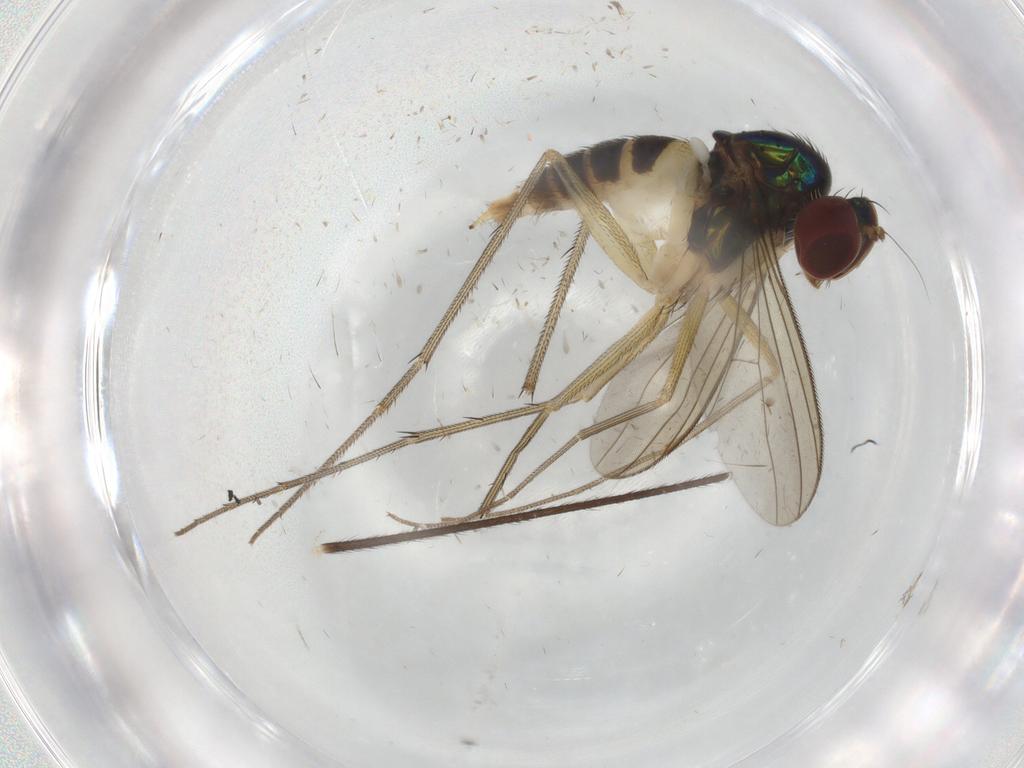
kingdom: Animalia
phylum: Arthropoda
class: Insecta
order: Diptera
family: Dolichopodidae
